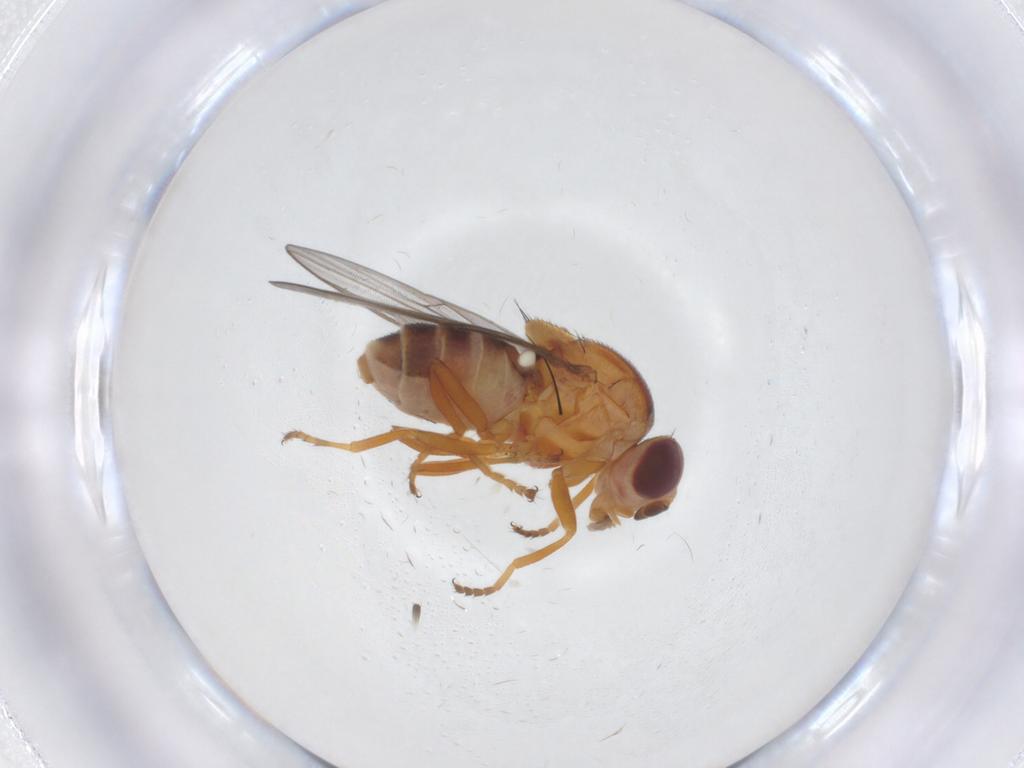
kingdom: Animalia
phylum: Arthropoda
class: Insecta
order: Diptera
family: Chloropidae
